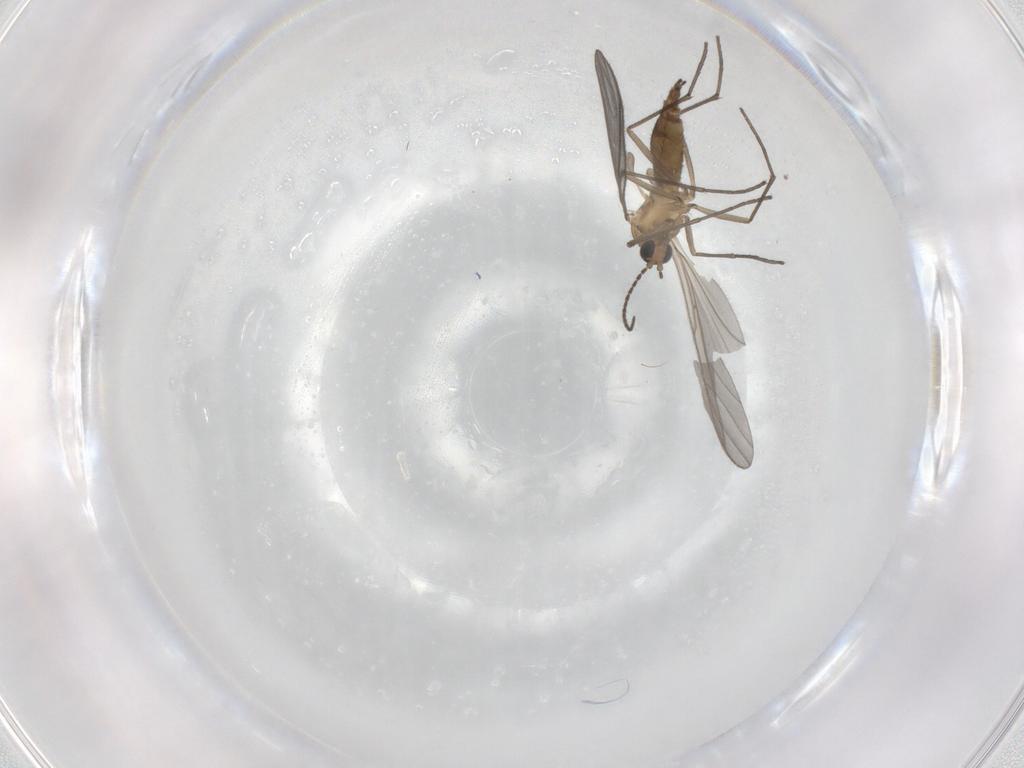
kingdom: Animalia
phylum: Arthropoda
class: Insecta
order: Diptera
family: Sciaridae
